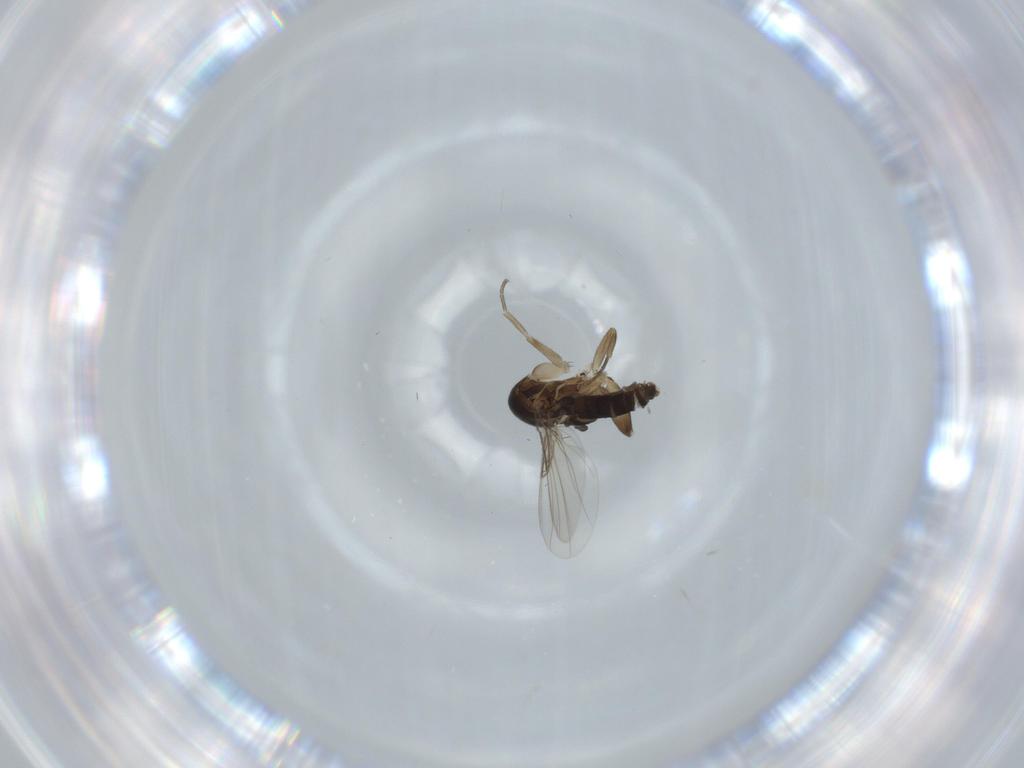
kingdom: Animalia
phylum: Arthropoda
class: Insecta
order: Diptera
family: Phoridae
